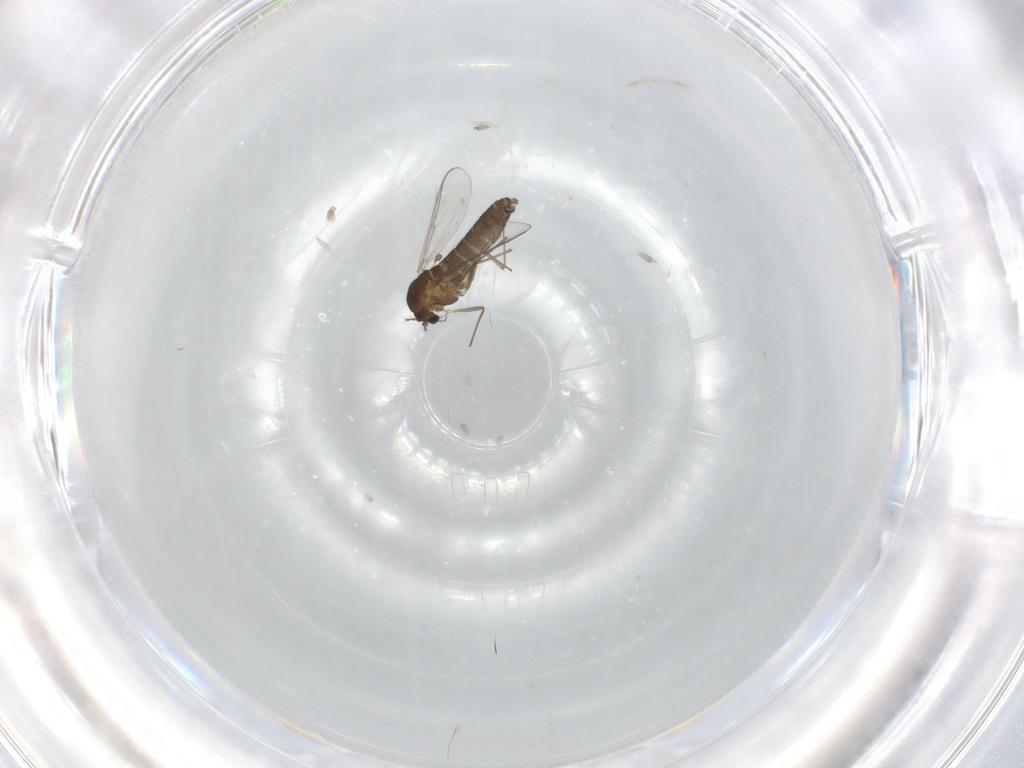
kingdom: Animalia
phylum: Arthropoda
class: Insecta
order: Diptera
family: Chironomidae
